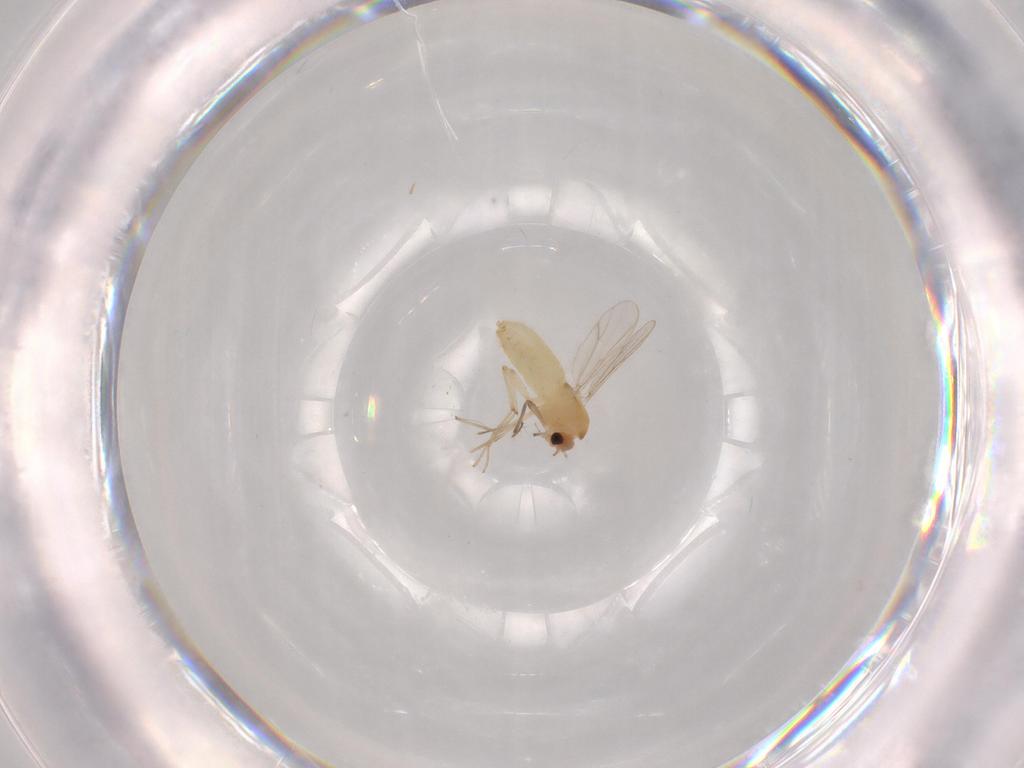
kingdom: Animalia
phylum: Arthropoda
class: Insecta
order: Diptera
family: Chironomidae
